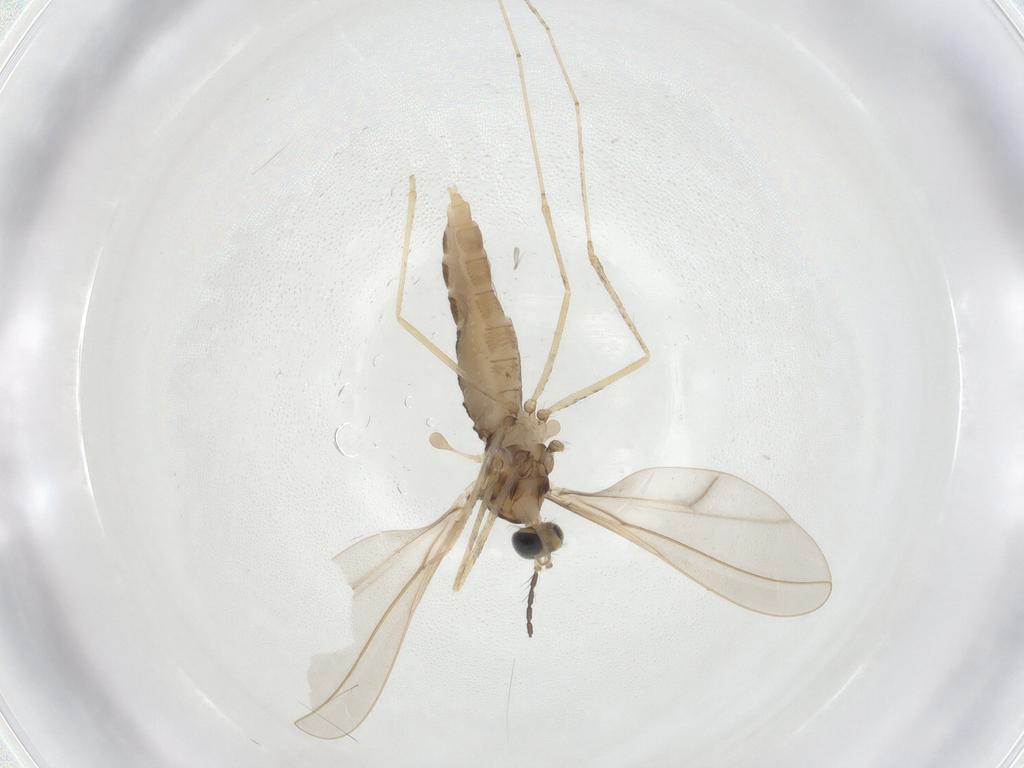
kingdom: Animalia
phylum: Arthropoda
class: Insecta
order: Diptera
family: Cecidomyiidae
